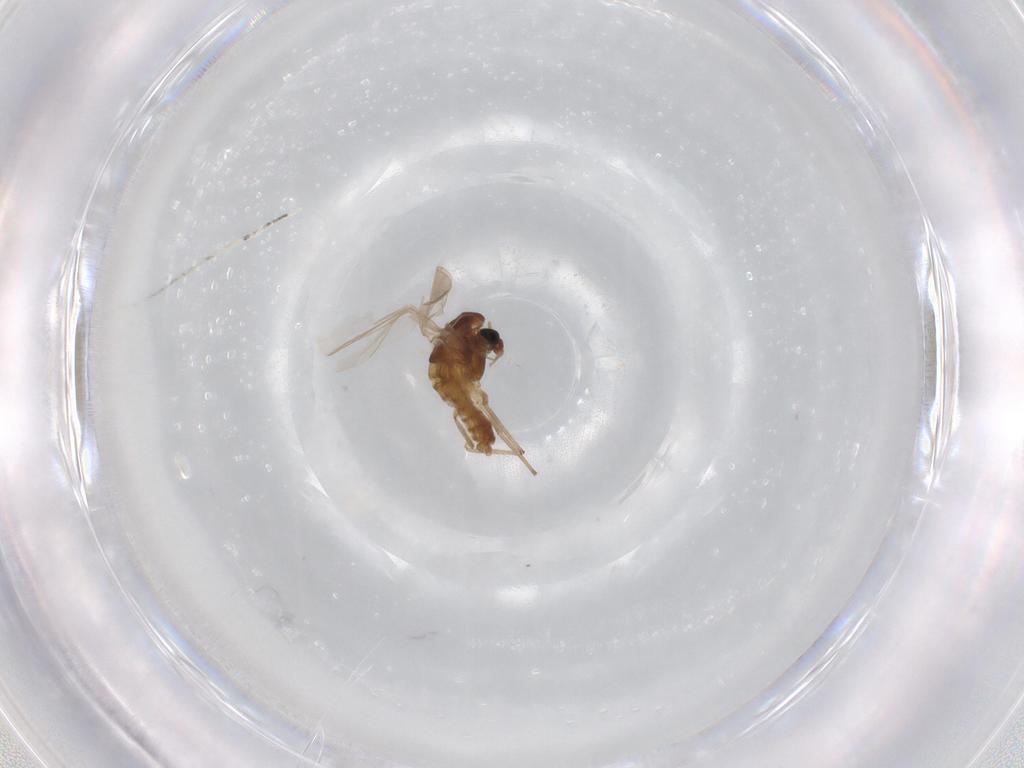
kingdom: Animalia
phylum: Arthropoda
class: Insecta
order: Diptera
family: Chironomidae
